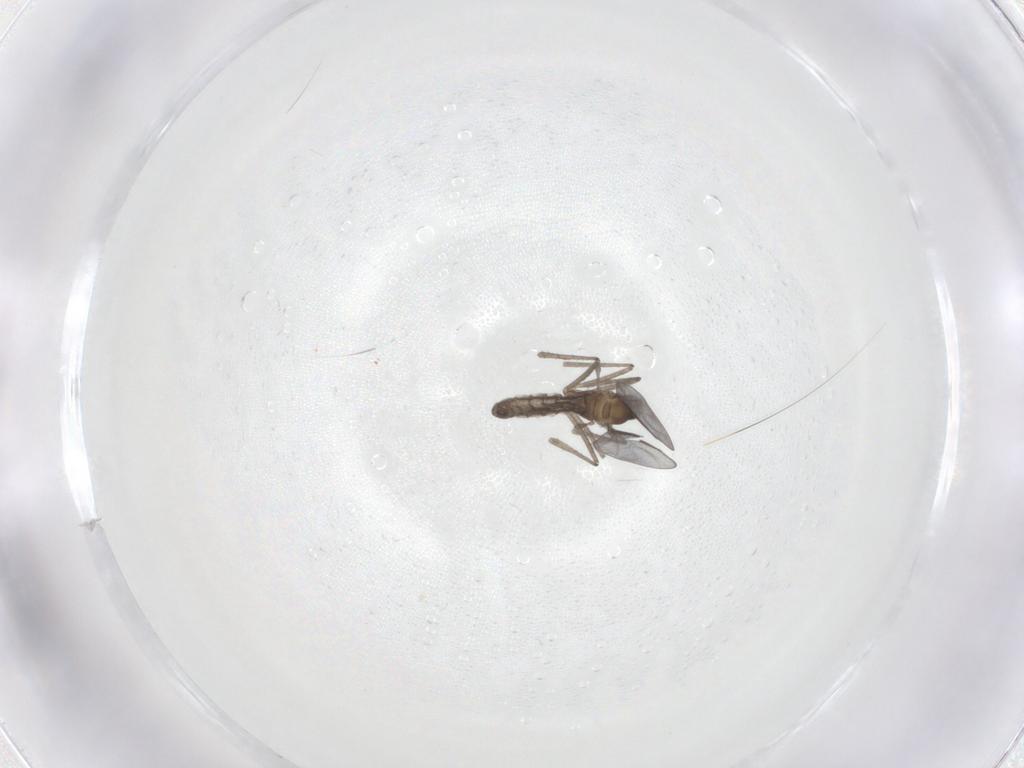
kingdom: Animalia
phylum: Arthropoda
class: Insecta
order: Diptera
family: Cecidomyiidae
